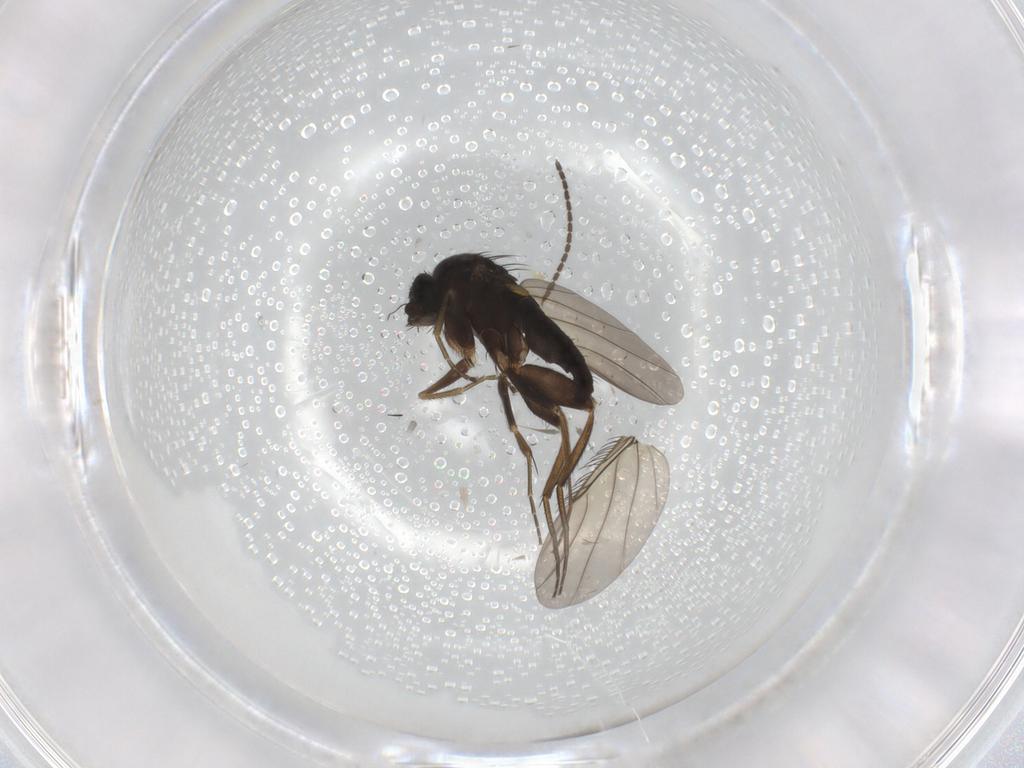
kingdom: Animalia
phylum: Arthropoda
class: Insecta
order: Diptera
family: Phoridae
